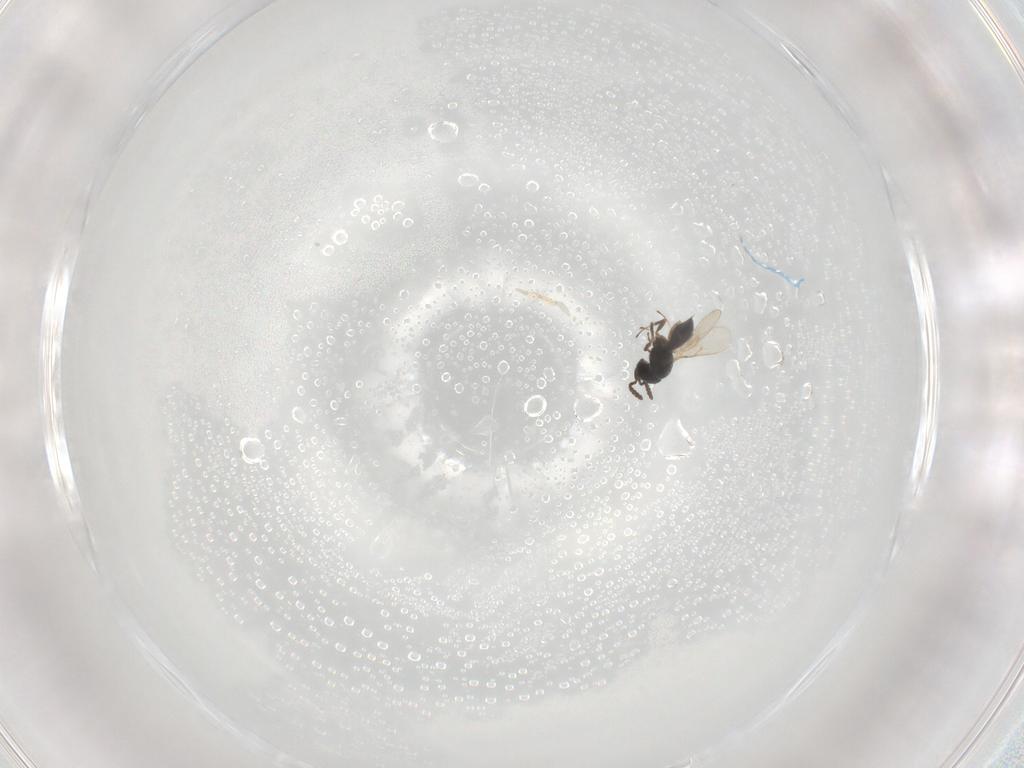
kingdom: Animalia
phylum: Arthropoda
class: Insecta
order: Hymenoptera
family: Scelionidae
